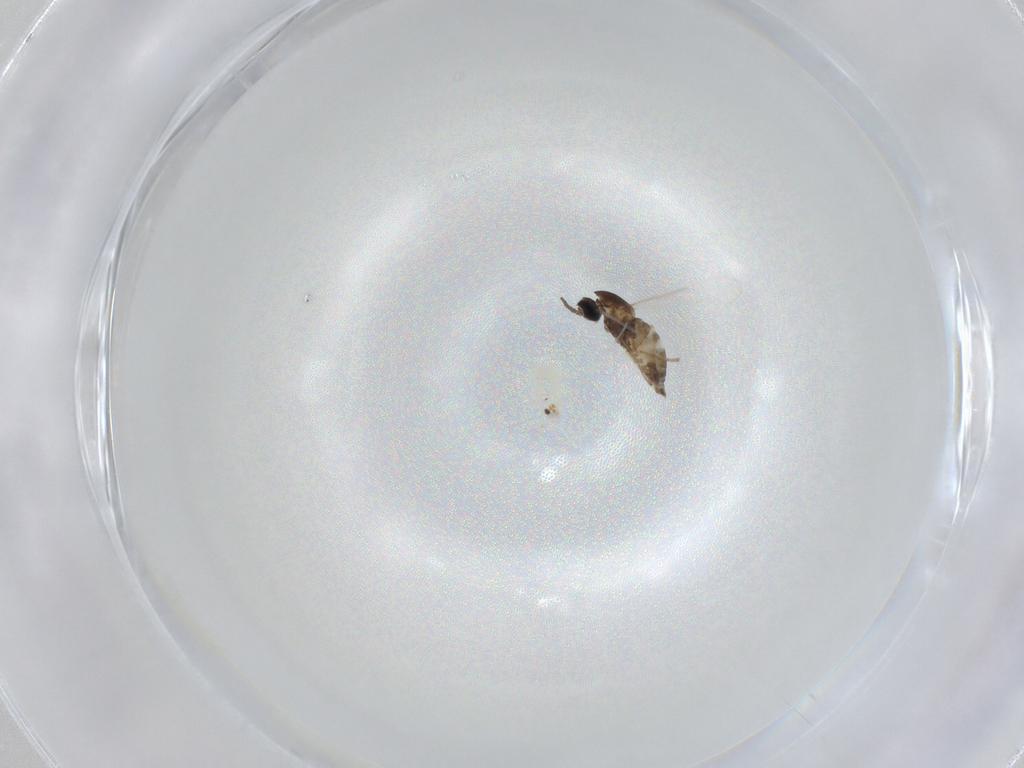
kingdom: Animalia
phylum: Arthropoda
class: Insecta
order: Diptera
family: Cecidomyiidae
